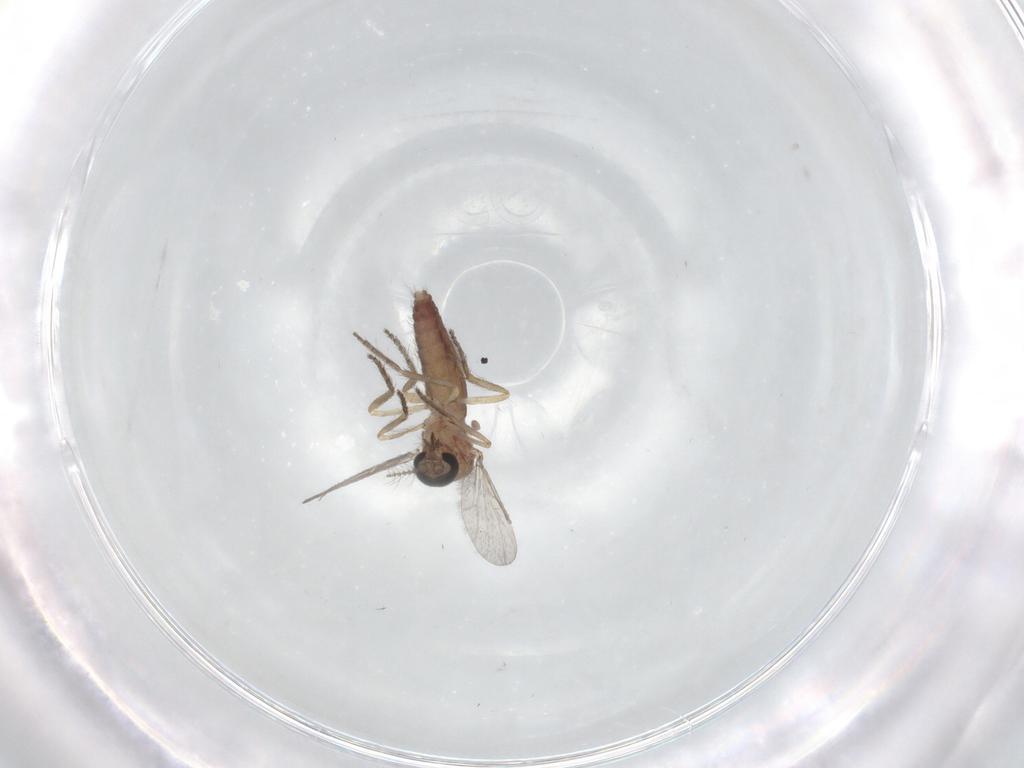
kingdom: Animalia
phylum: Arthropoda
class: Insecta
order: Diptera
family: Ceratopogonidae
